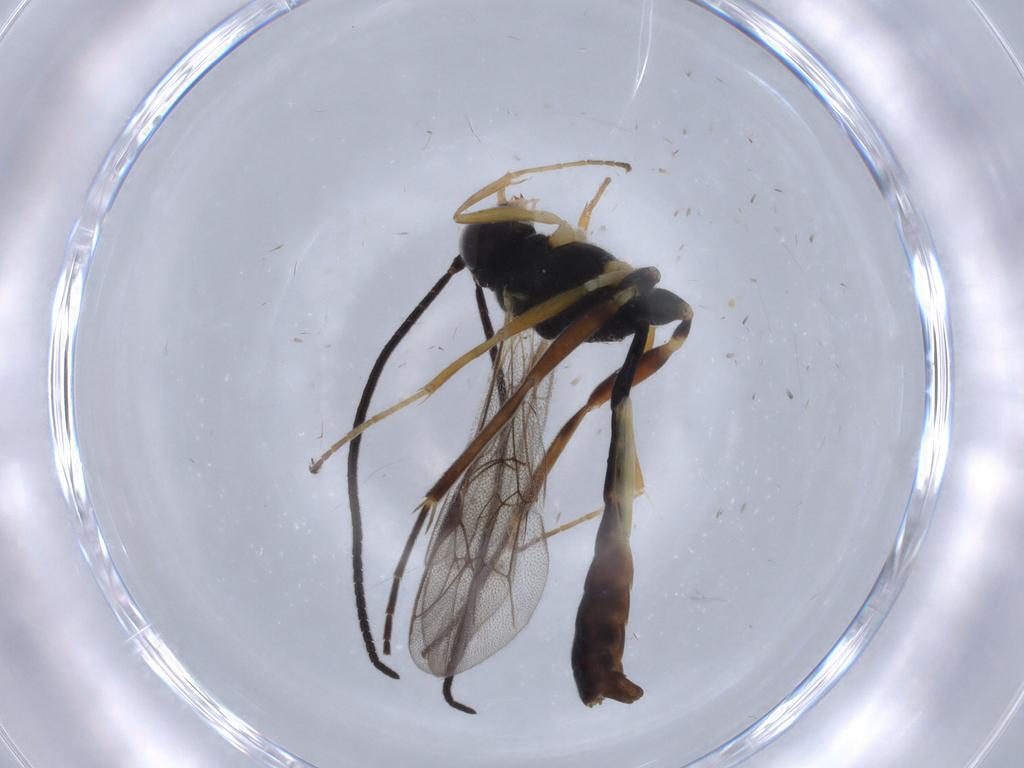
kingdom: Animalia
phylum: Arthropoda
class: Insecta
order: Hymenoptera
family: Ichneumonidae
